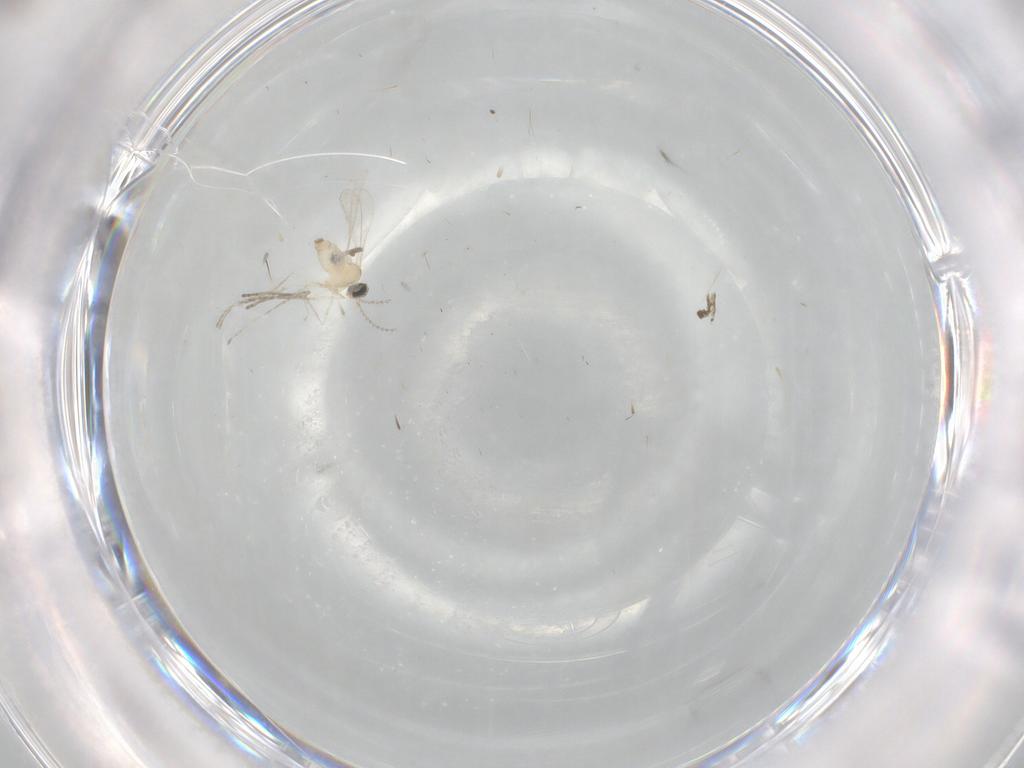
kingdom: Animalia
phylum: Arthropoda
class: Insecta
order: Diptera
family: Cecidomyiidae
